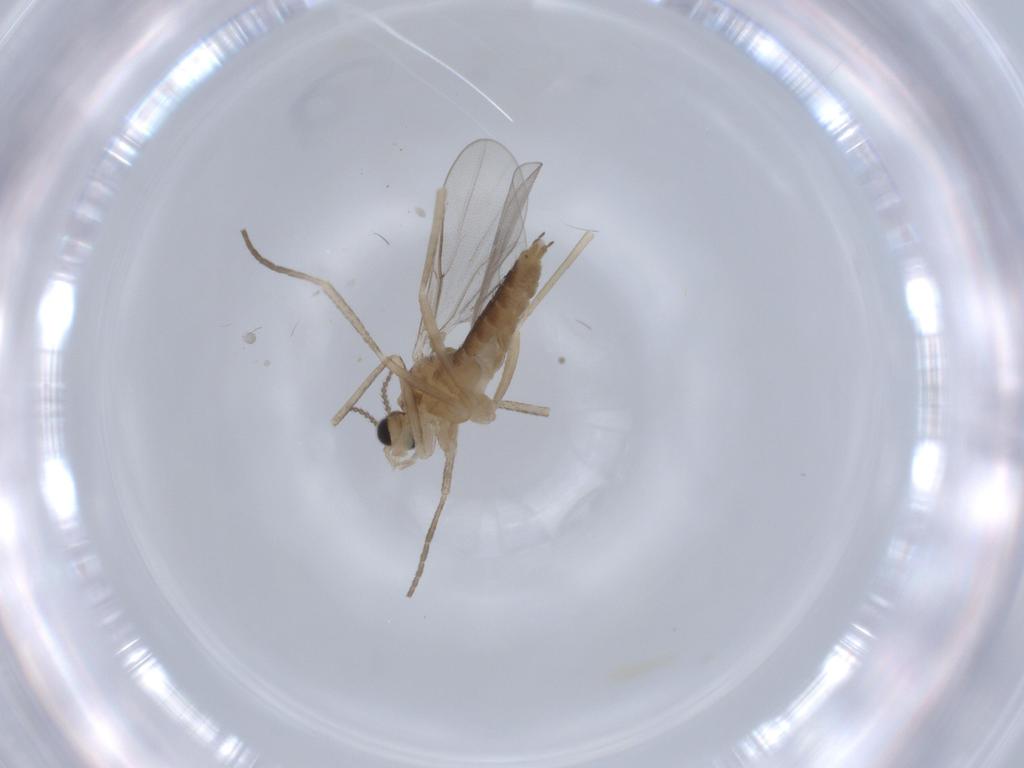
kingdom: Animalia
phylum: Arthropoda
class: Insecta
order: Diptera
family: Cecidomyiidae
